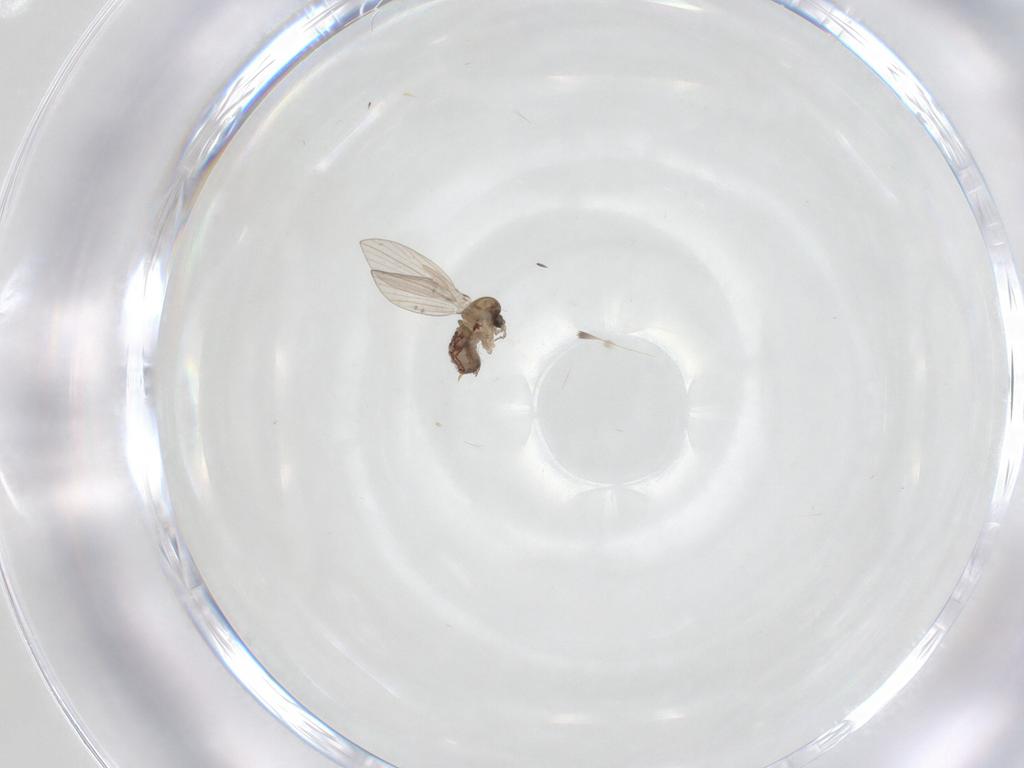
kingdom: Animalia
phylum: Arthropoda
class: Insecta
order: Diptera
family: Psychodidae
